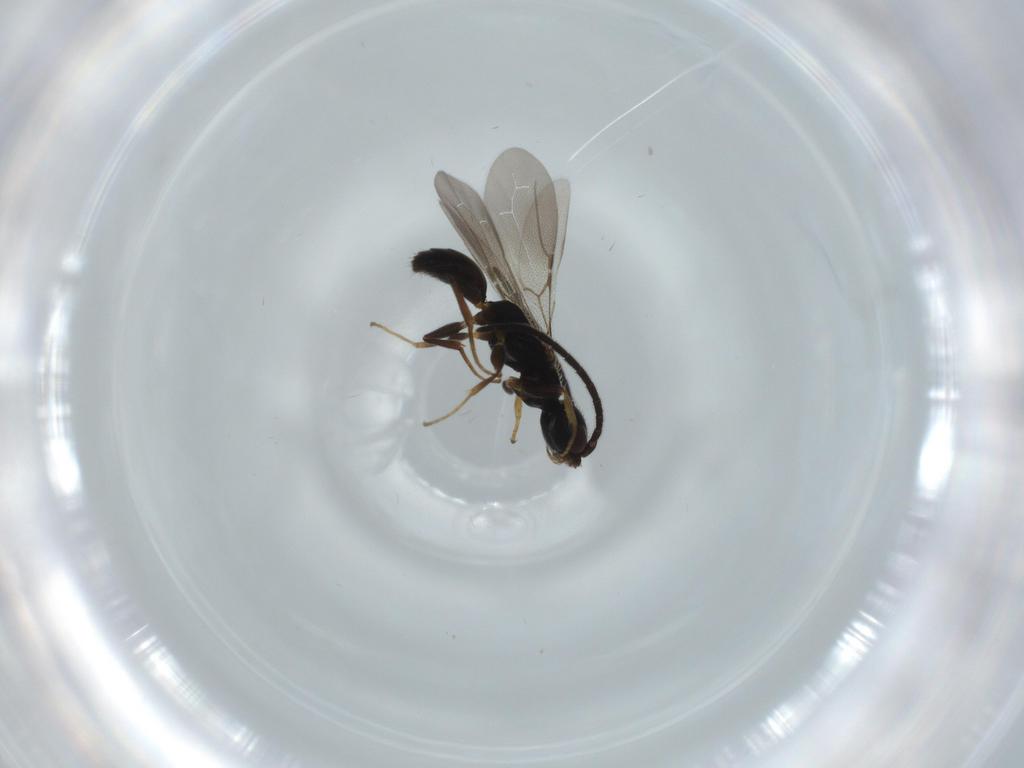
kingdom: Animalia
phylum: Arthropoda
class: Insecta
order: Hymenoptera
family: Bethylidae
